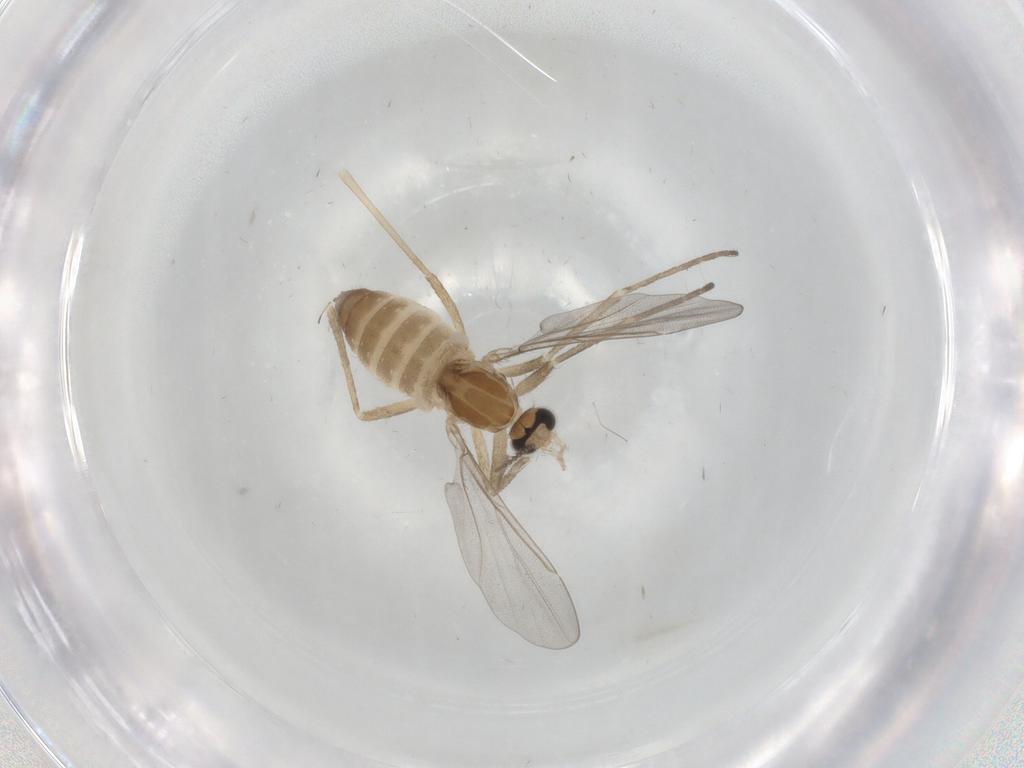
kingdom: Animalia
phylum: Arthropoda
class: Insecta
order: Diptera
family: Cecidomyiidae
